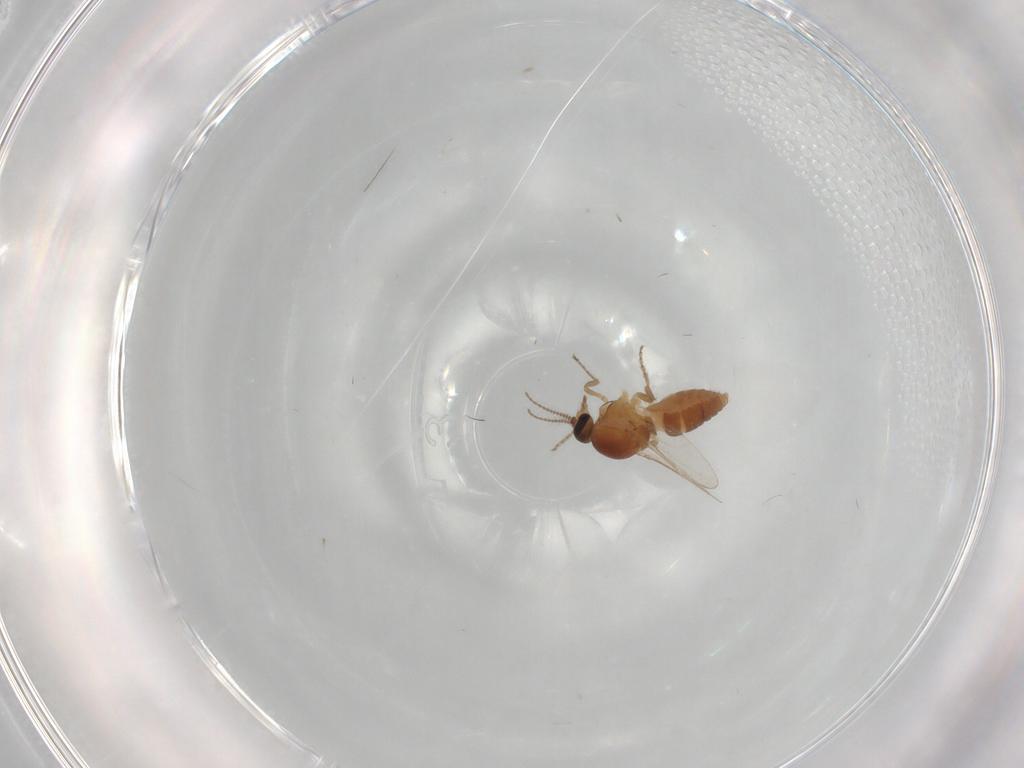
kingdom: Animalia
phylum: Arthropoda
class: Insecta
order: Diptera
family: Ceratopogonidae
